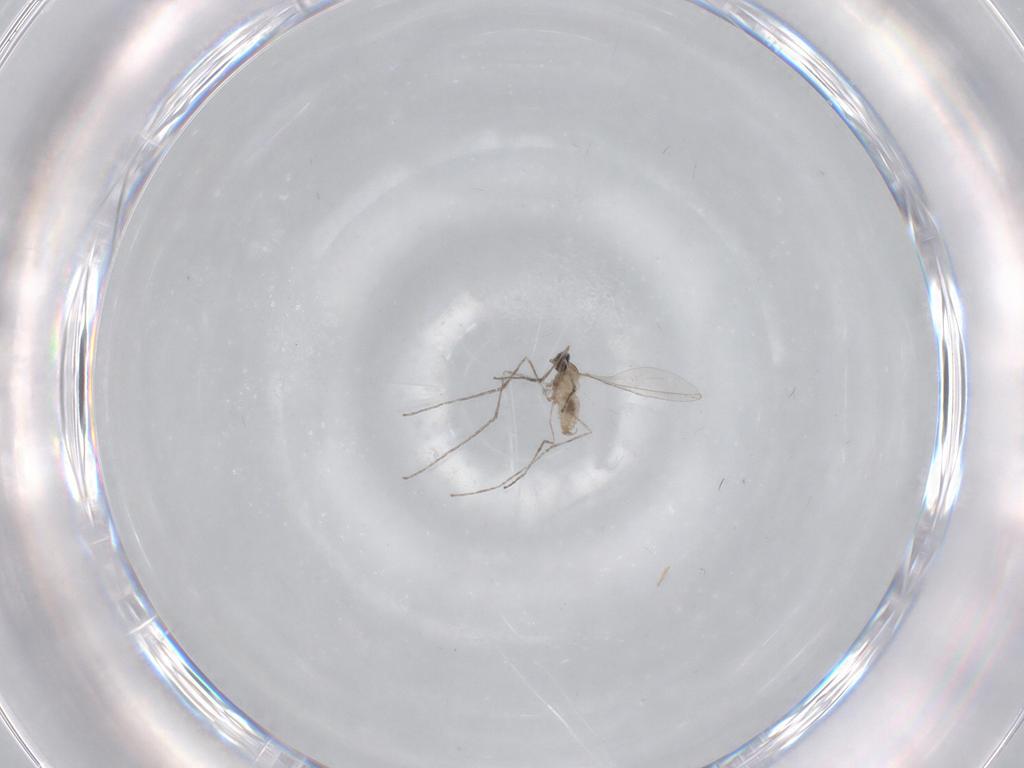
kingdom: Animalia
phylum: Arthropoda
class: Insecta
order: Diptera
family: Cecidomyiidae
